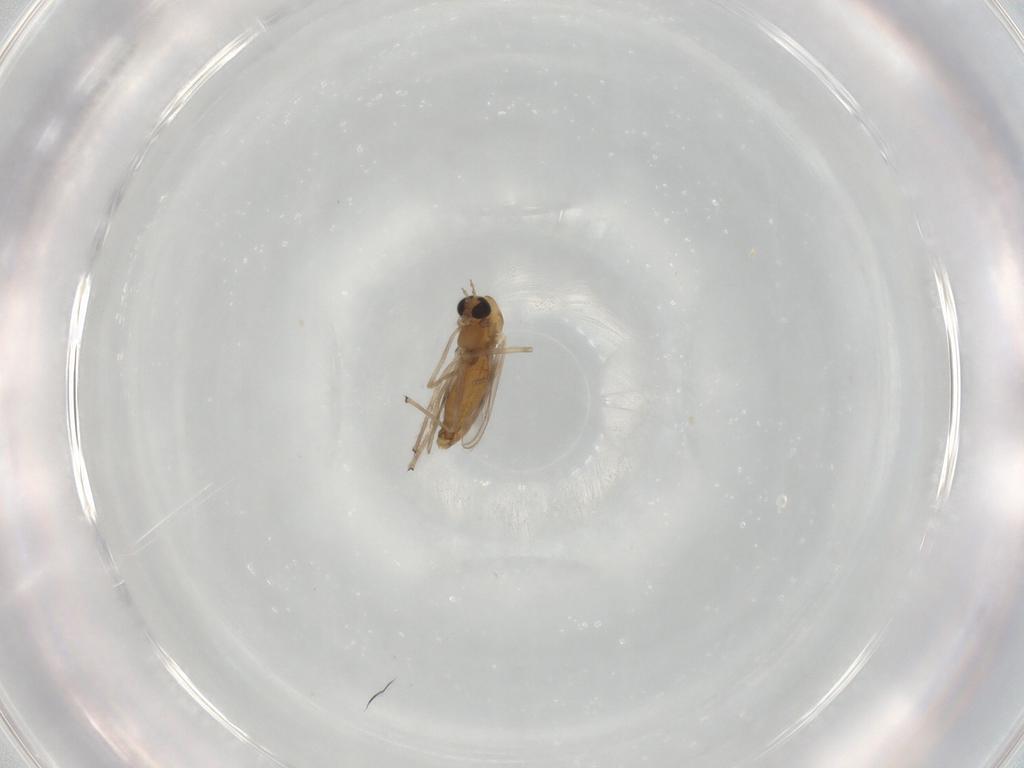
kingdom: Animalia
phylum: Arthropoda
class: Insecta
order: Diptera
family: Chironomidae
